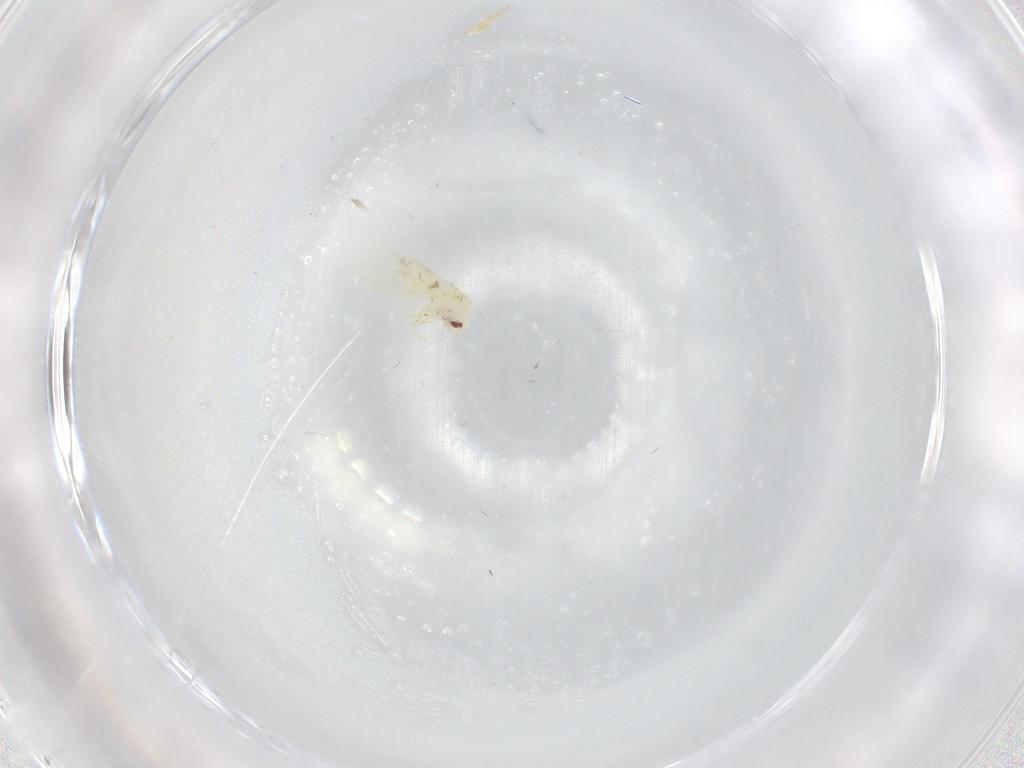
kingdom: Animalia
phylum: Arthropoda
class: Insecta
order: Hemiptera
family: Aleyrodidae
